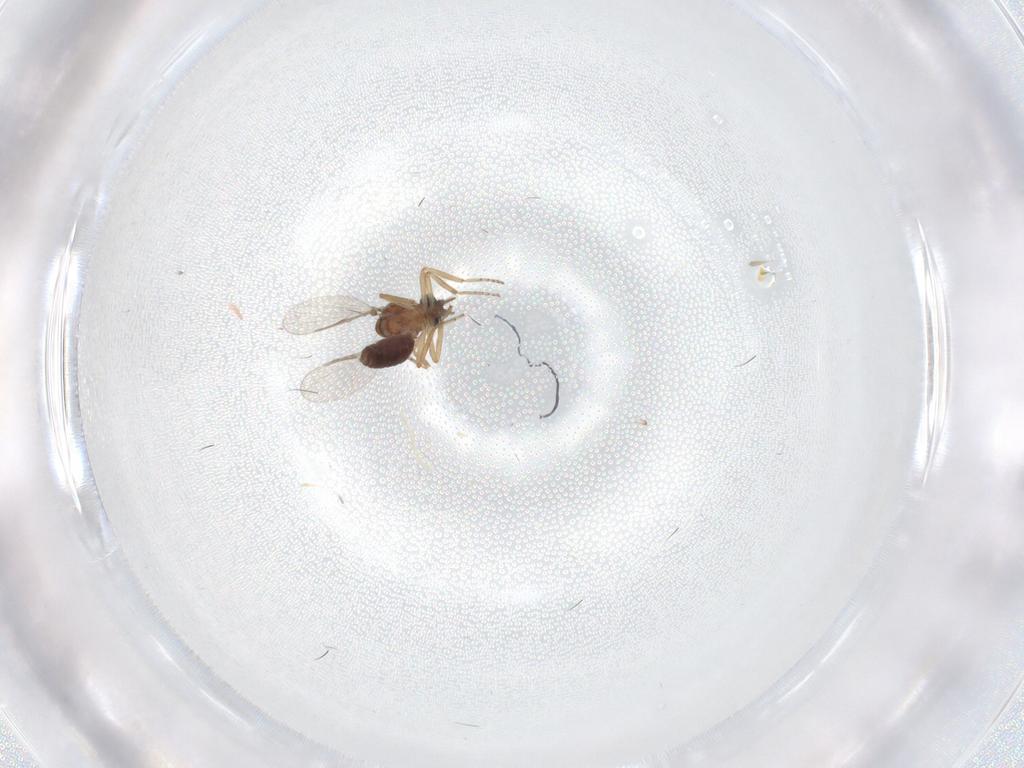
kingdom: Animalia
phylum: Arthropoda
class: Insecta
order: Diptera
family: Ceratopogonidae
